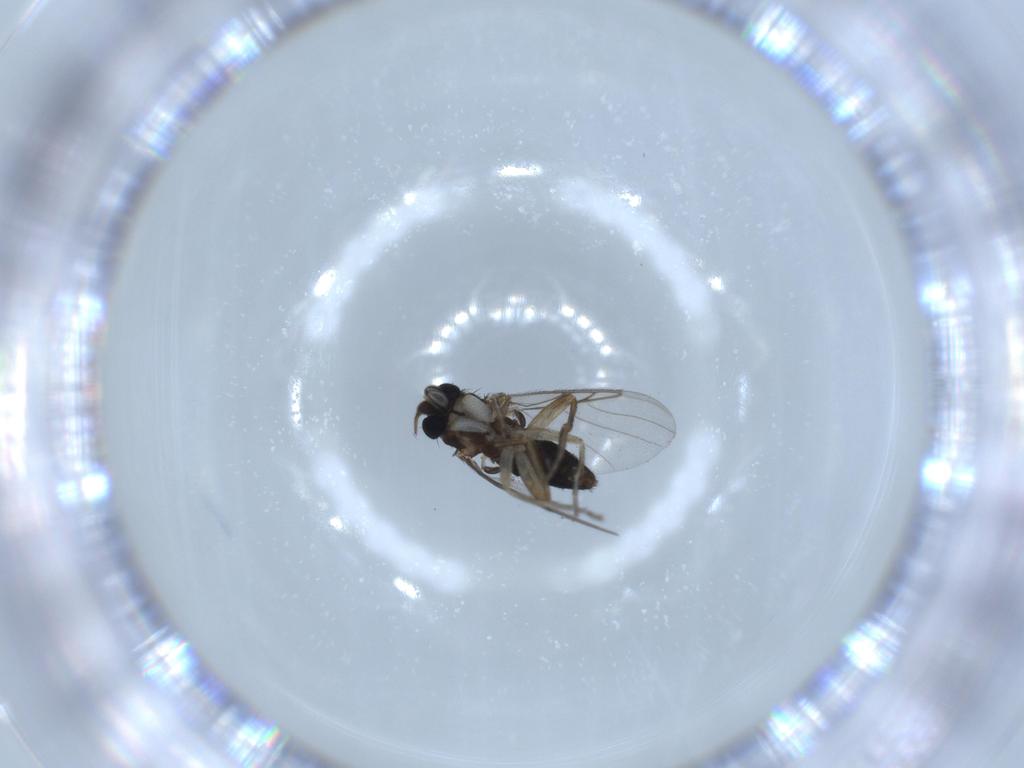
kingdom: Animalia
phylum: Arthropoda
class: Insecta
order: Diptera
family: Phoridae
